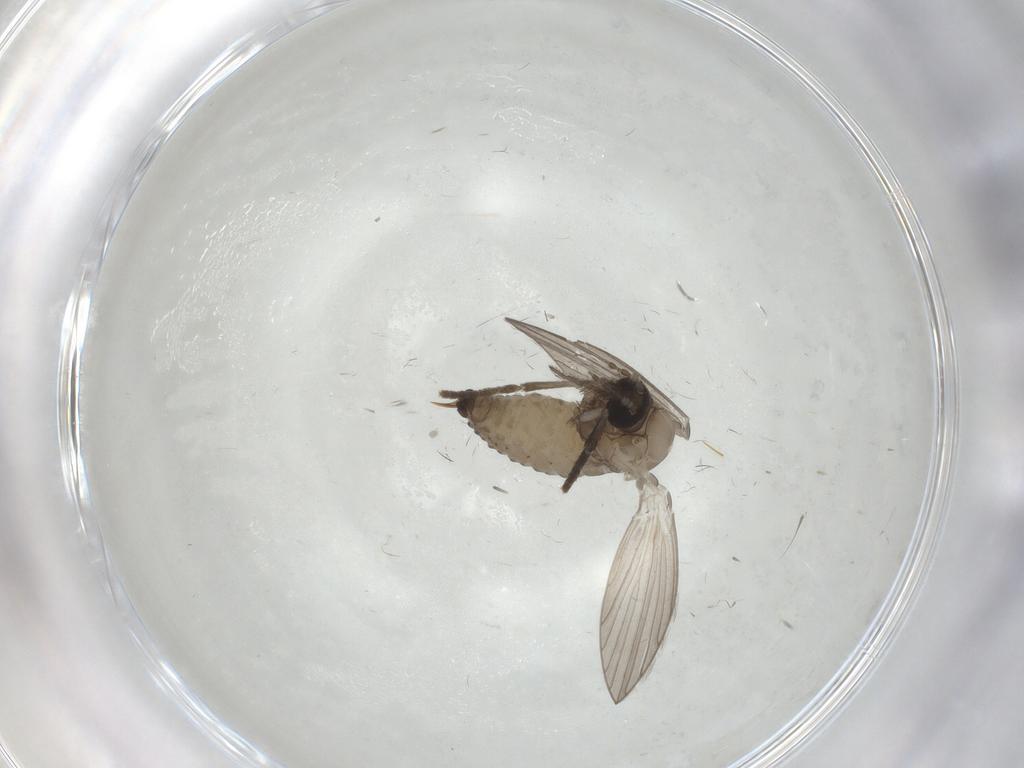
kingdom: Animalia
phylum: Arthropoda
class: Insecta
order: Diptera
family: Psychodidae
